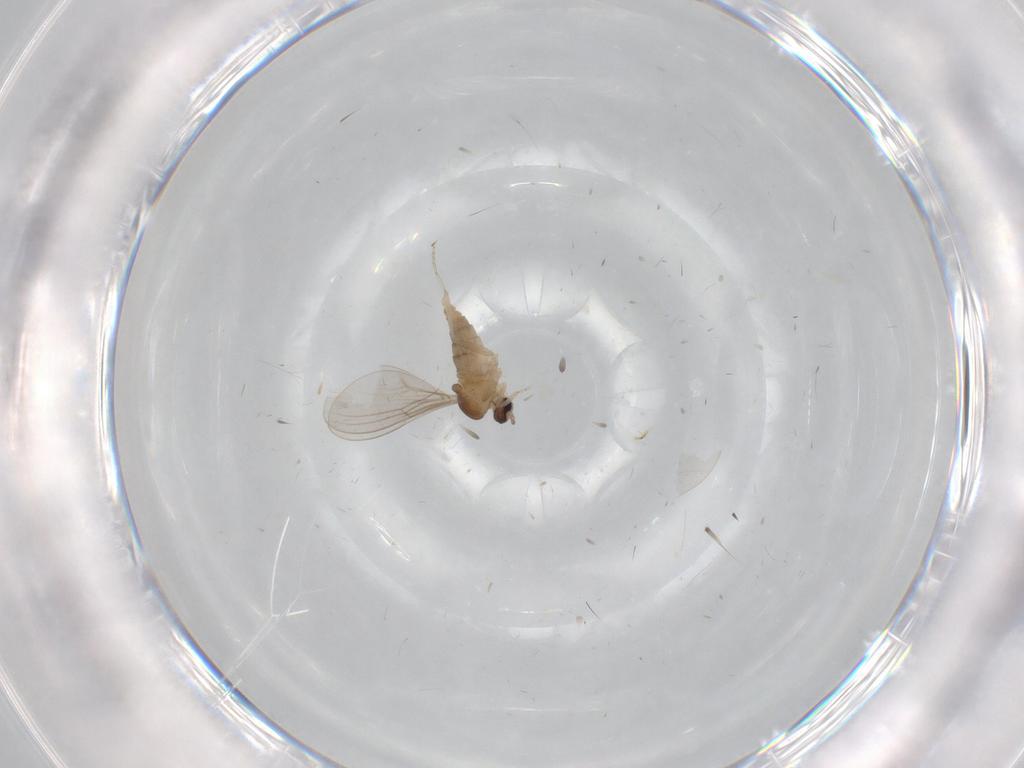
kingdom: Animalia
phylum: Arthropoda
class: Insecta
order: Diptera
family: Cecidomyiidae
